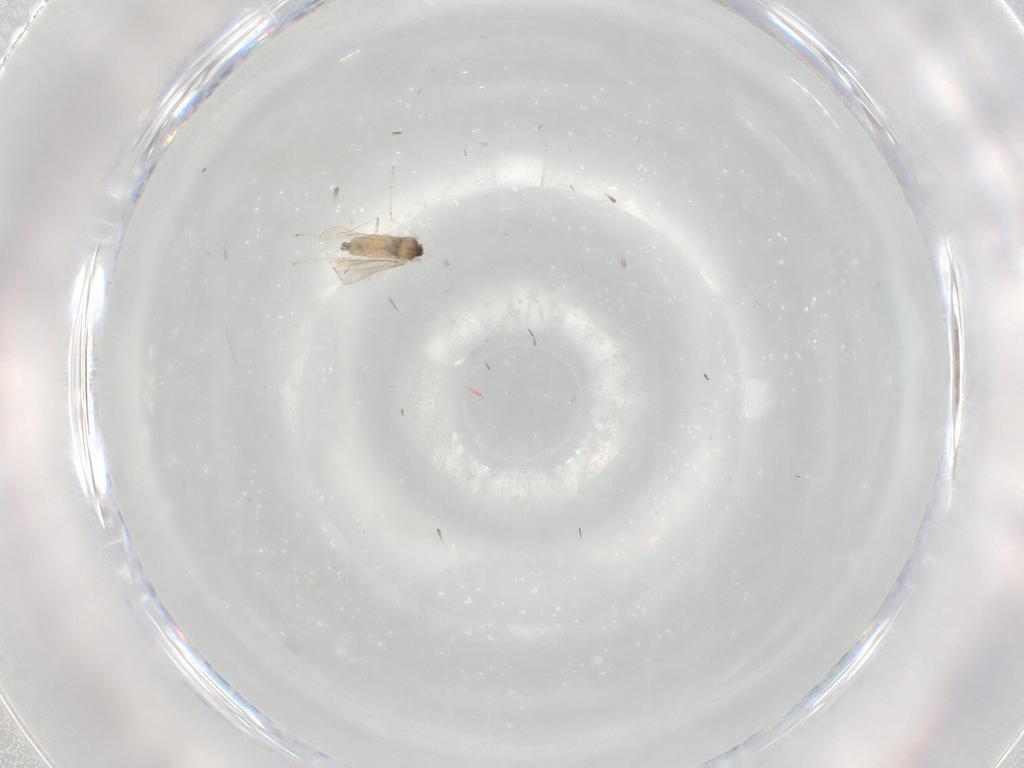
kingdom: Animalia
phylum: Arthropoda
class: Insecta
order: Diptera
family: Cecidomyiidae
